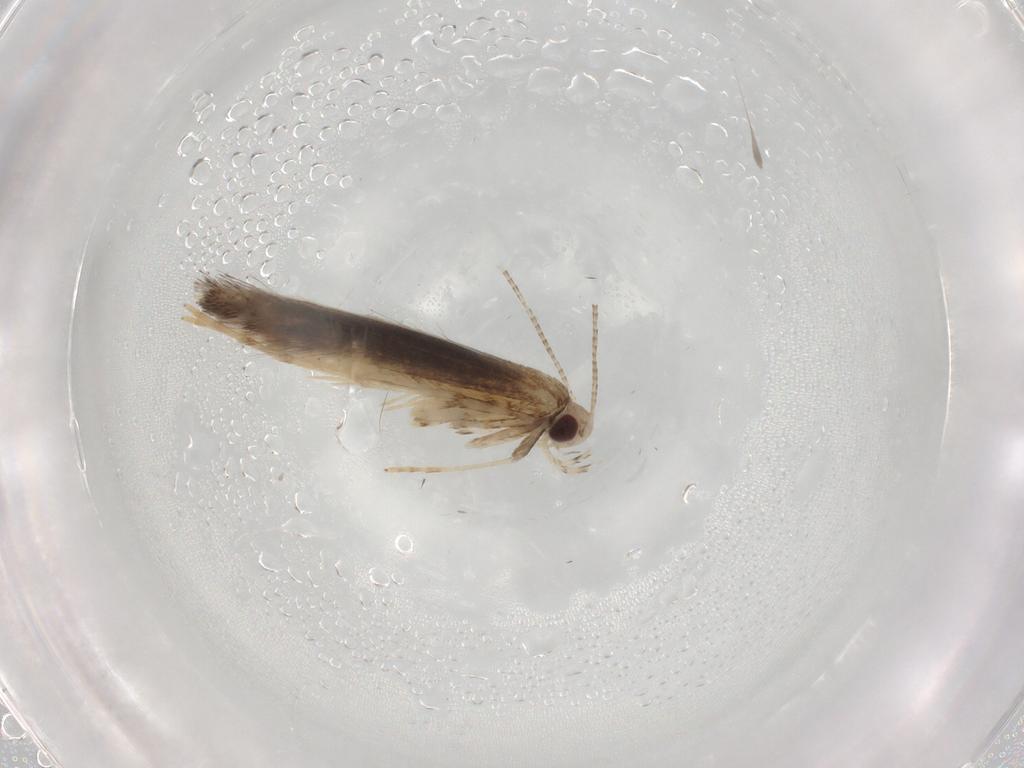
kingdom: Animalia
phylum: Arthropoda
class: Insecta
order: Lepidoptera
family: Gracillariidae
